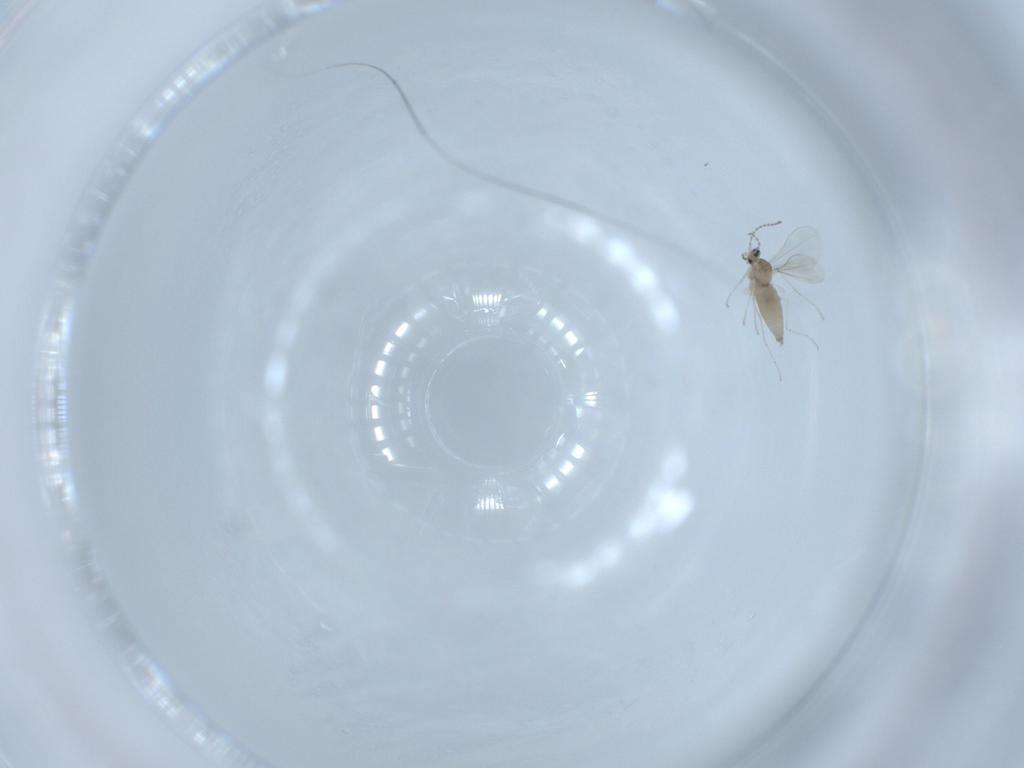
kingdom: Animalia
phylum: Arthropoda
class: Insecta
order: Diptera
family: Cecidomyiidae
